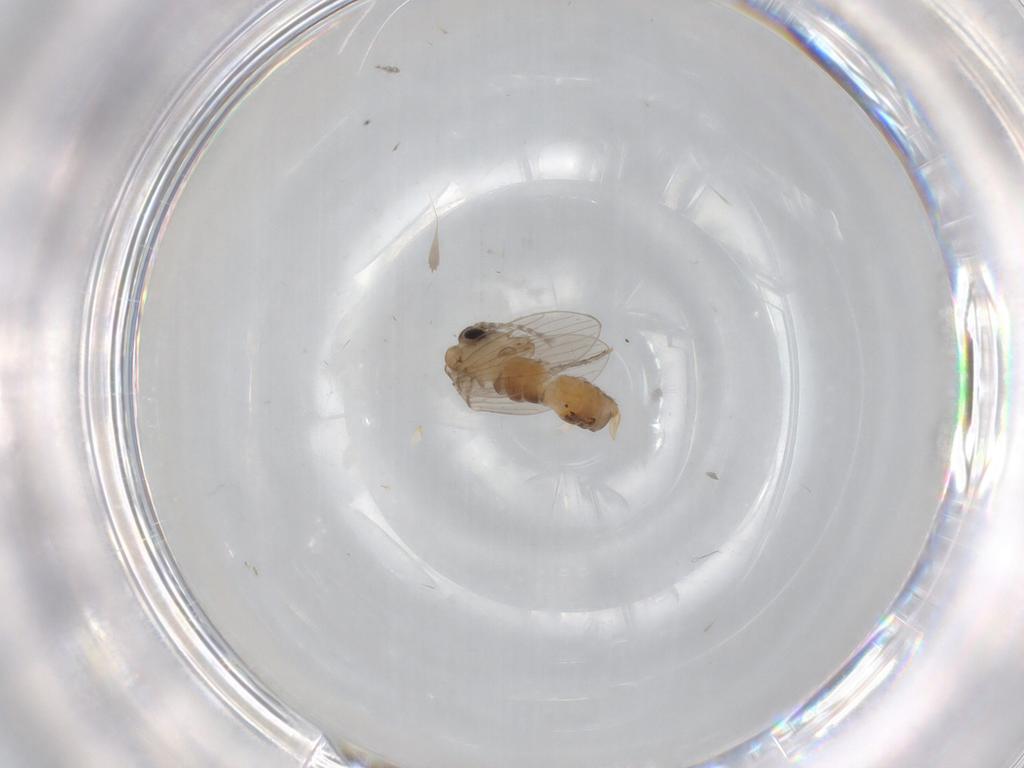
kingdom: Animalia
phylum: Arthropoda
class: Insecta
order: Diptera
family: Psychodidae
